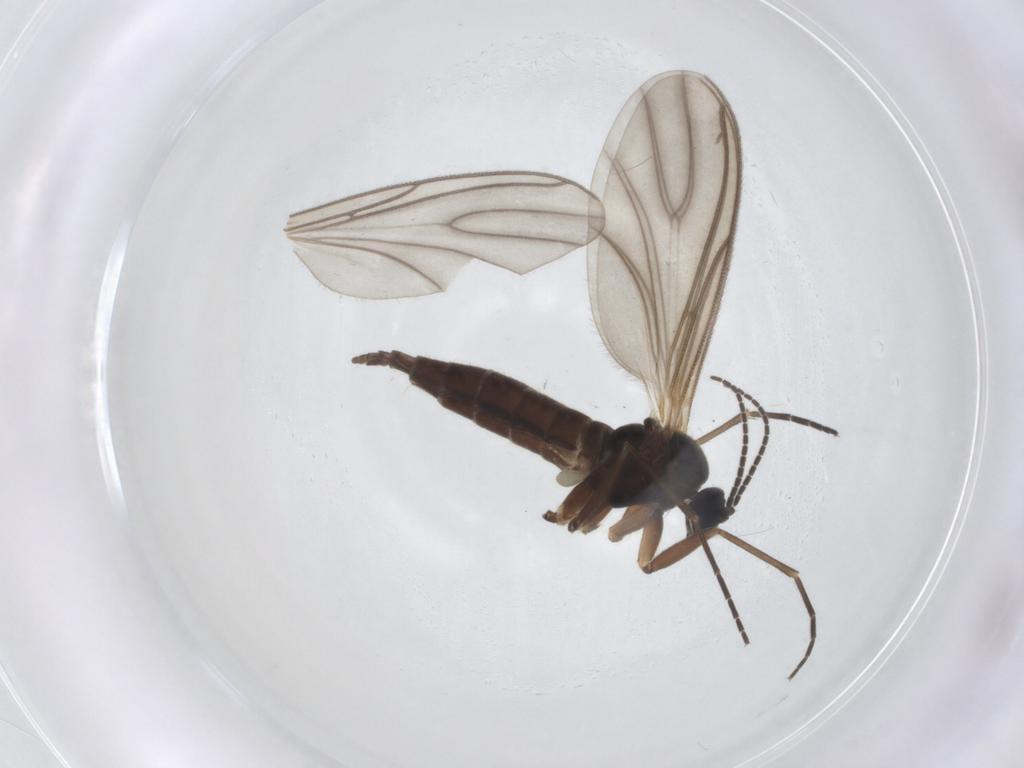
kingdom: Animalia
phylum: Arthropoda
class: Insecta
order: Diptera
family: Sciaridae
